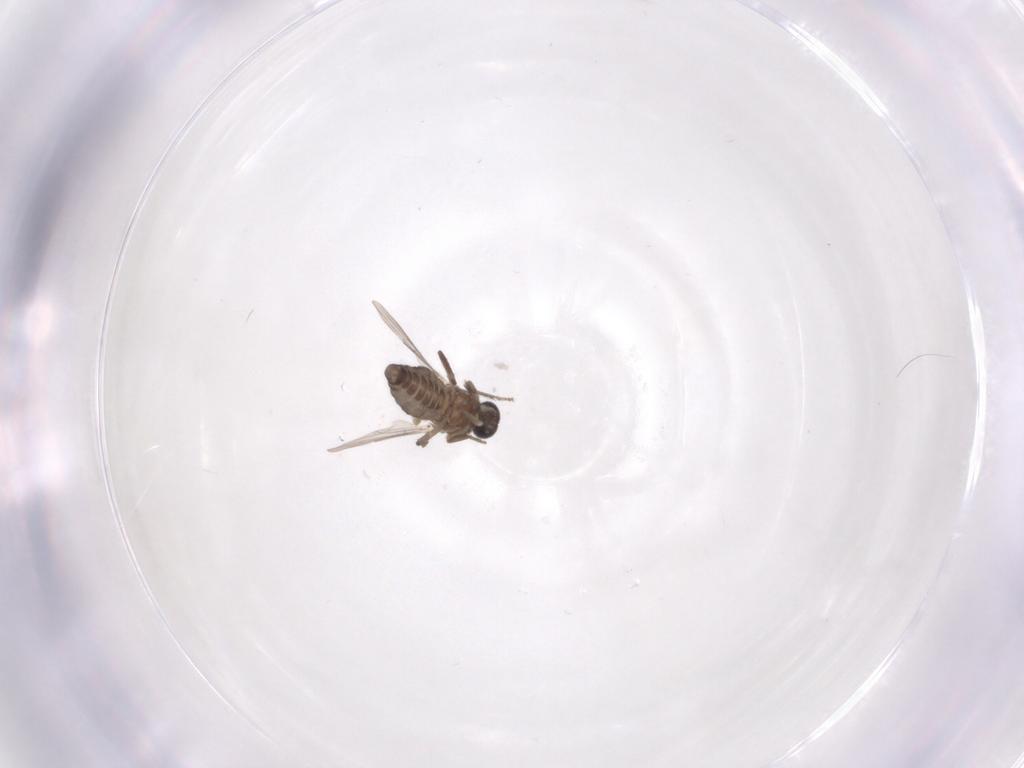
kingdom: Animalia
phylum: Arthropoda
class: Insecta
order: Diptera
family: Ceratopogonidae
